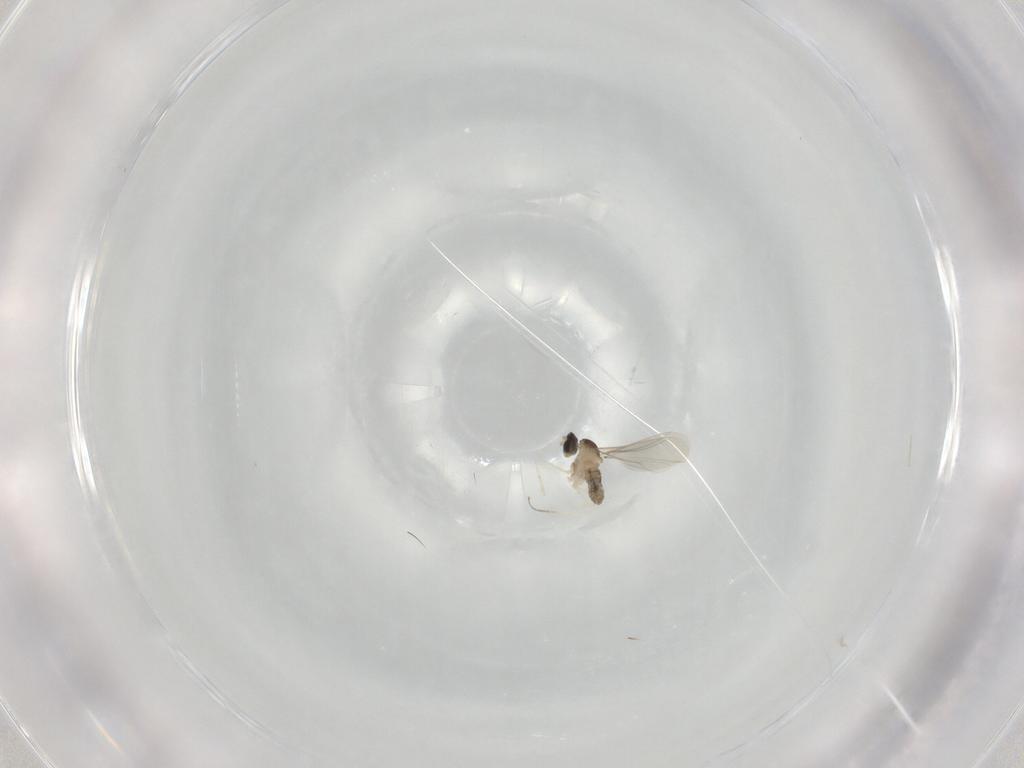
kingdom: Animalia
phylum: Arthropoda
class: Insecta
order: Diptera
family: Cecidomyiidae
